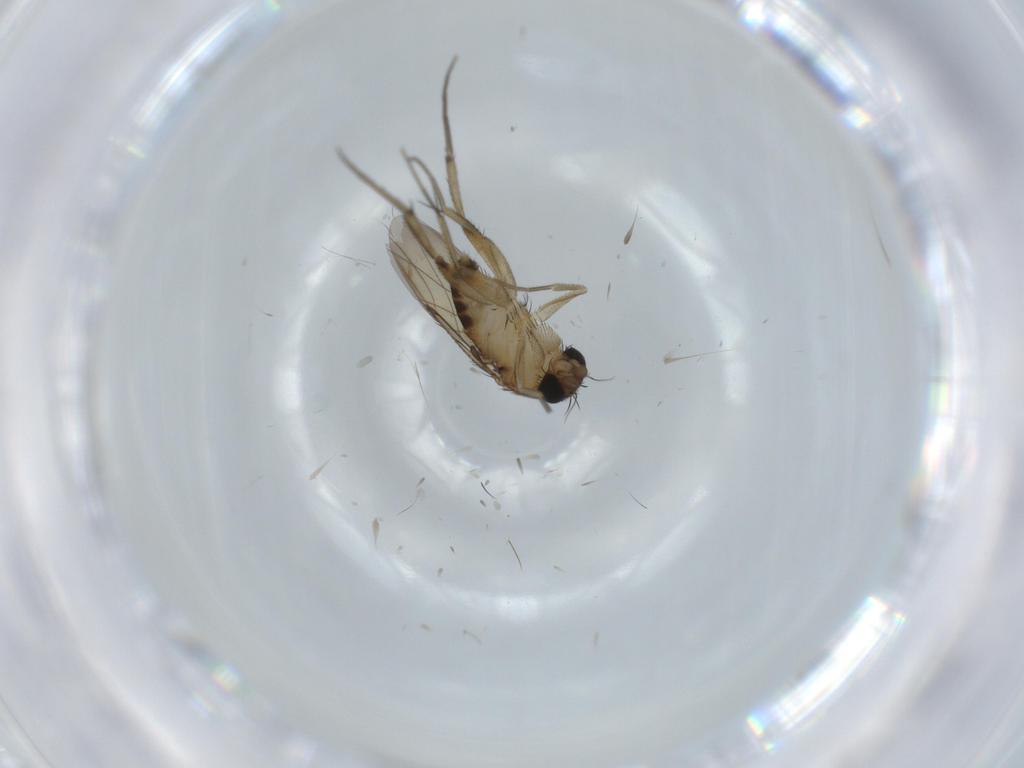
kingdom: Animalia
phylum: Arthropoda
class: Insecta
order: Diptera
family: Phoridae
